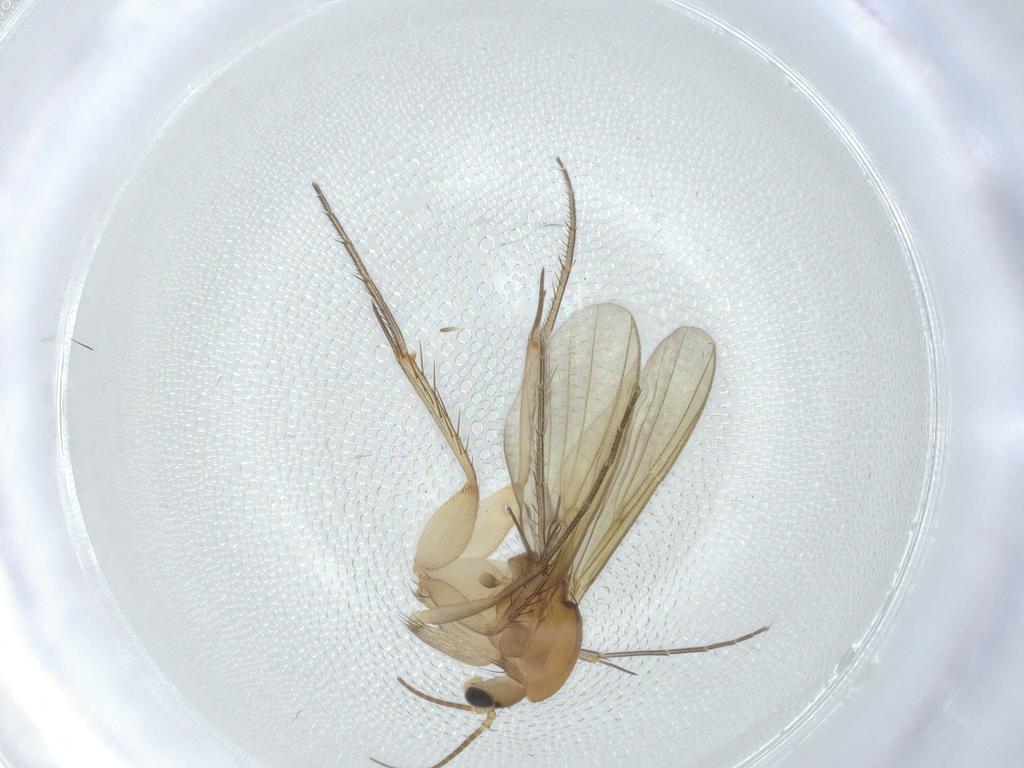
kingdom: Animalia
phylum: Arthropoda
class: Insecta
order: Diptera
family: Mycetophilidae
